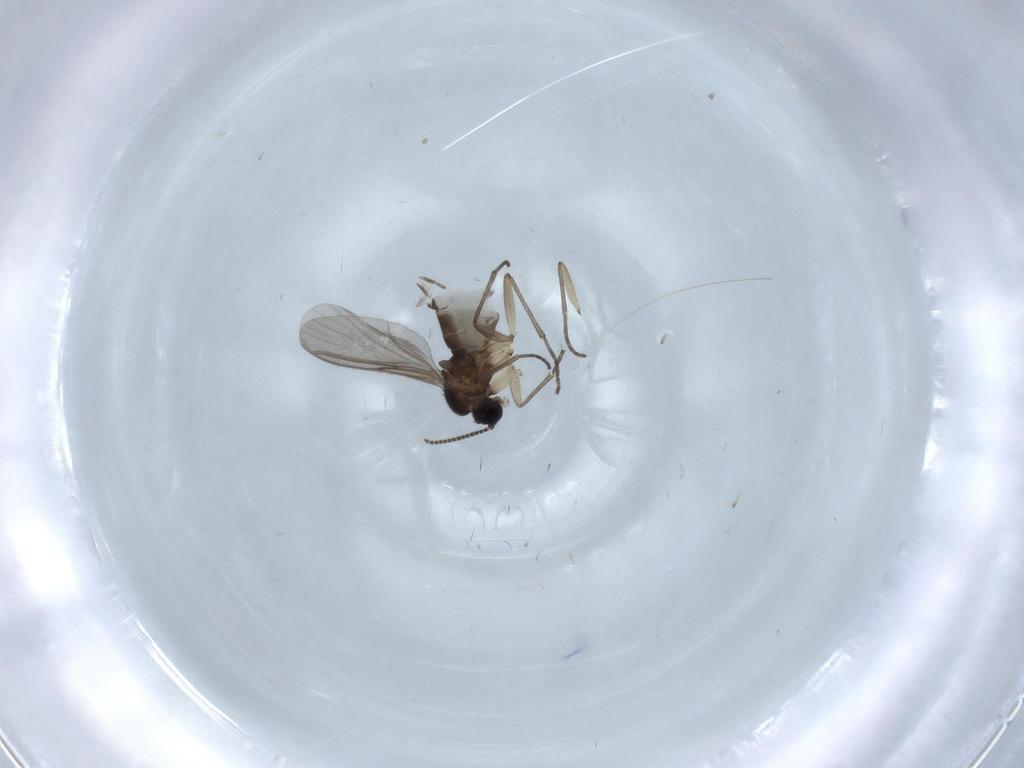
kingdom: Animalia
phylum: Arthropoda
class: Insecta
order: Diptera
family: Sciaridae
